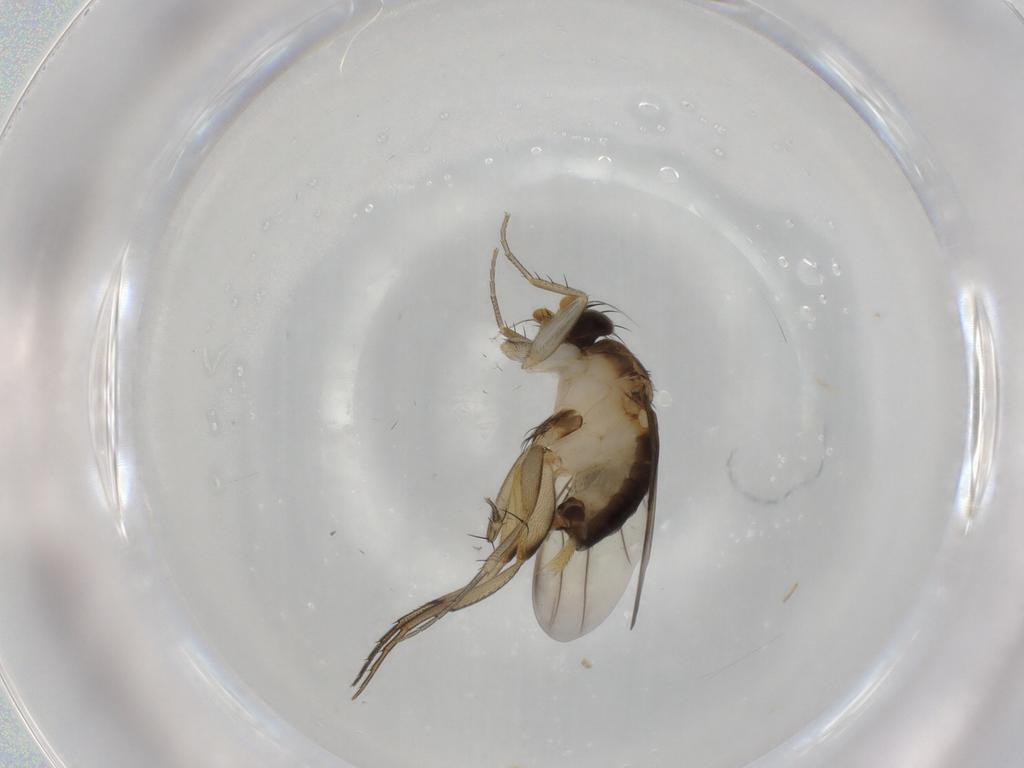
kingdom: Animalia
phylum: Arthropoda
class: Insecta
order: Diptera
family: Phoridae
